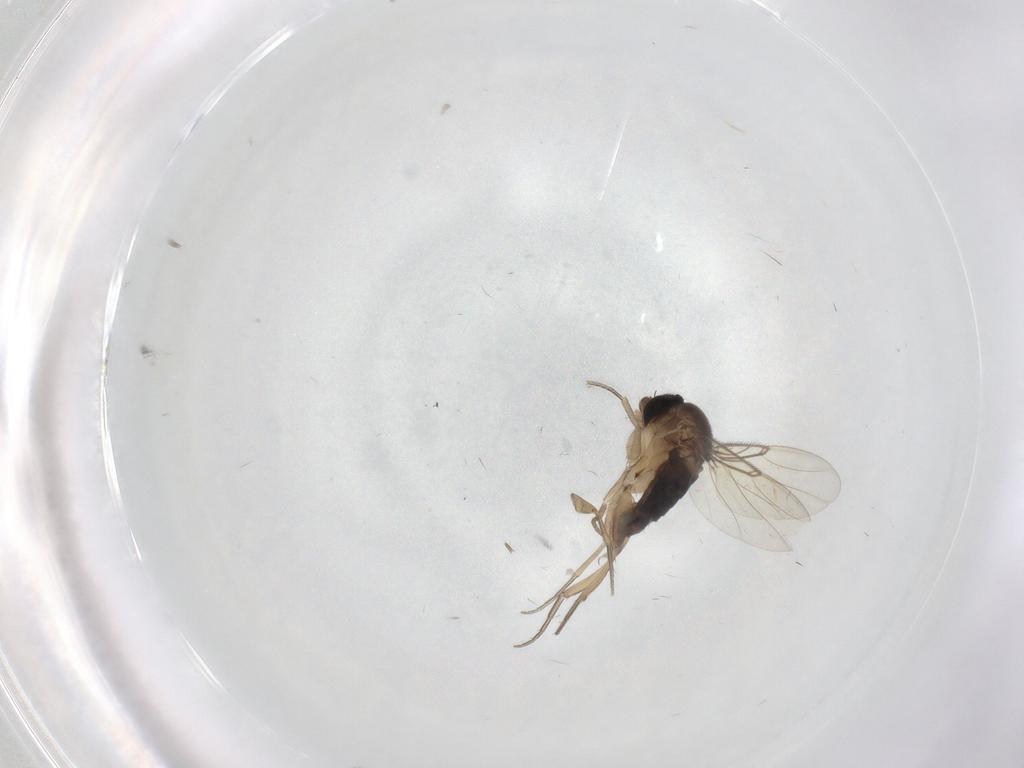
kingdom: Animalia
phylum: Arthropoda
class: Insecta
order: Diptera
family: Phoridae
